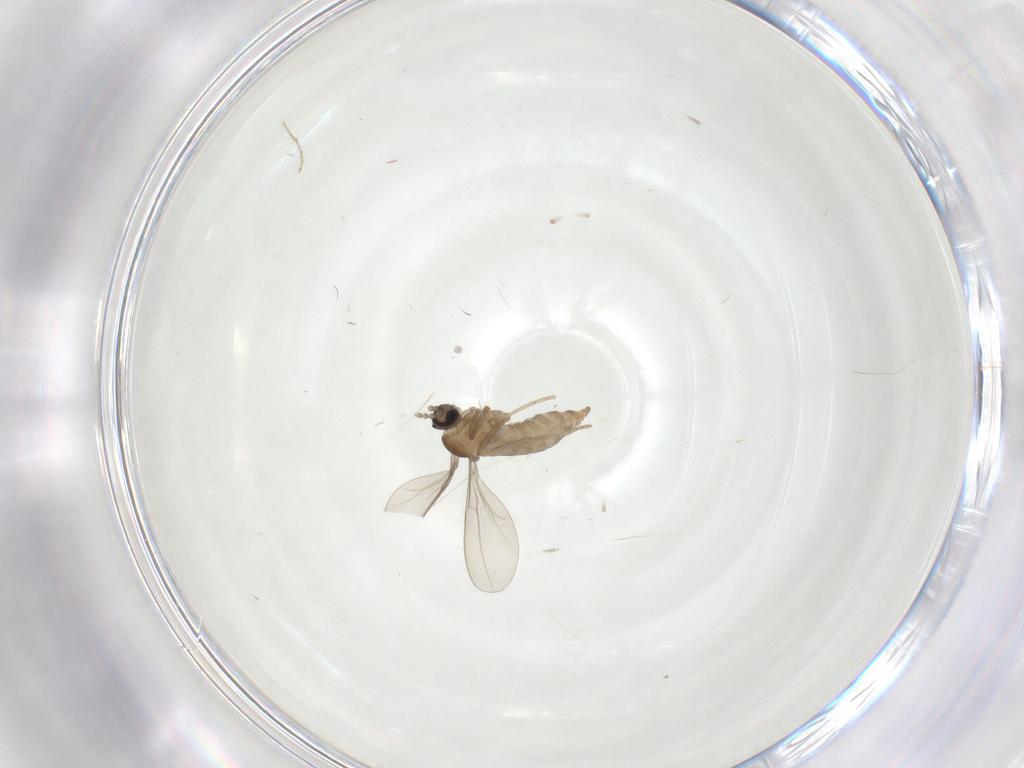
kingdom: Animalia
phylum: Arthropoda
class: Insecta
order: Diptera
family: Cecidomyiidae
